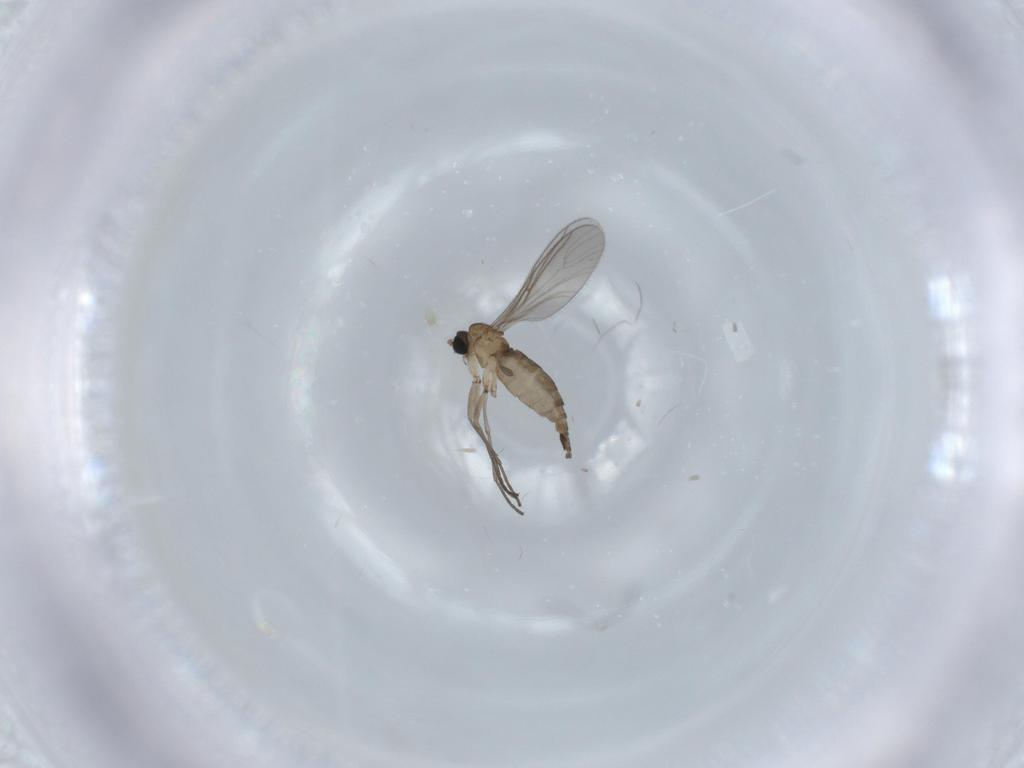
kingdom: Animalia
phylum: Arthropoda
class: Insecta
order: Diptera
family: Sciaridae
